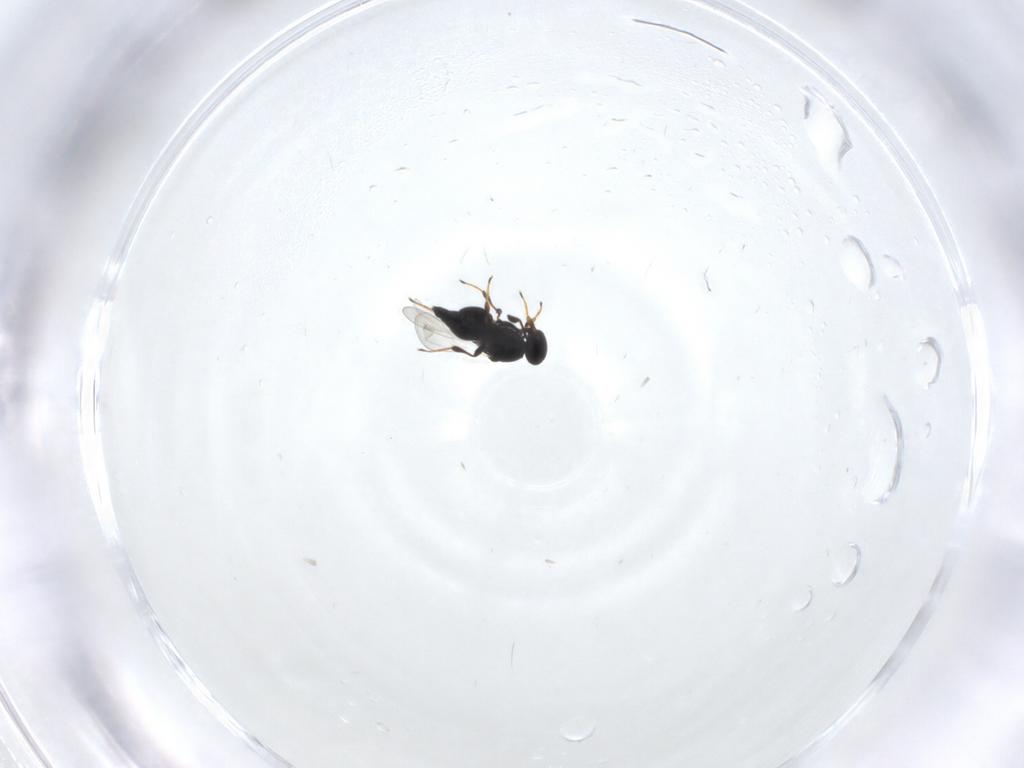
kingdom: Animalia
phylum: Arthropoda
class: Insecta
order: Hymenoptera
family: Platygastridae
